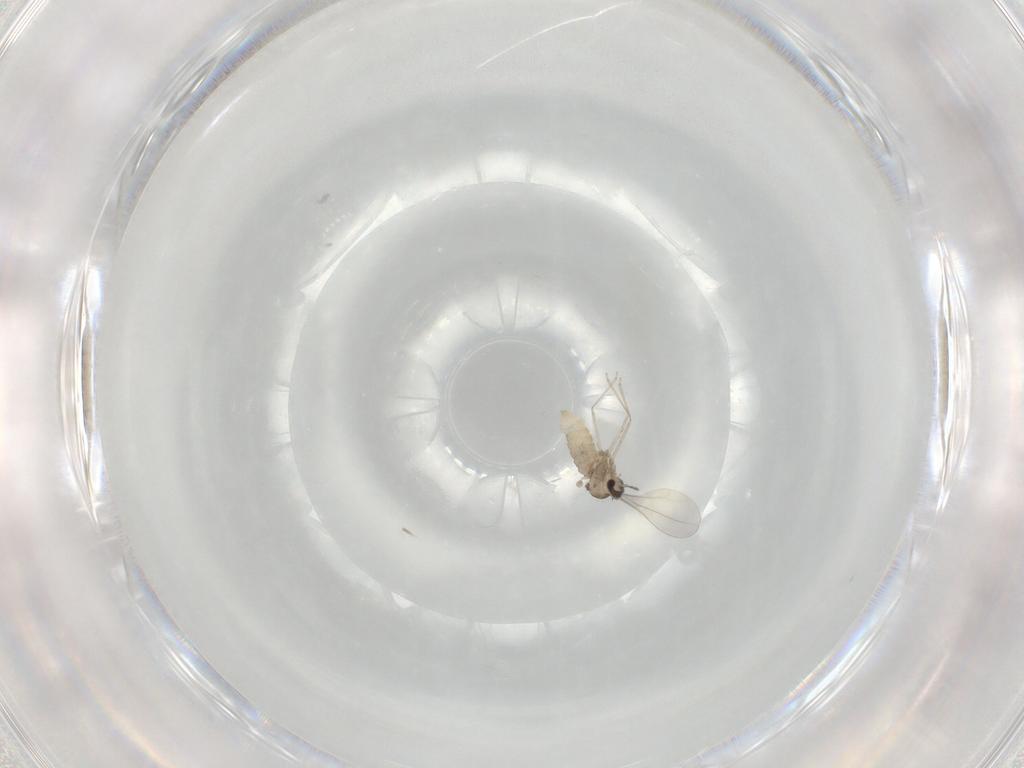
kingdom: Animalia
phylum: Arthropoda
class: Insecta
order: Diptera
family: Cecidomyiidae
